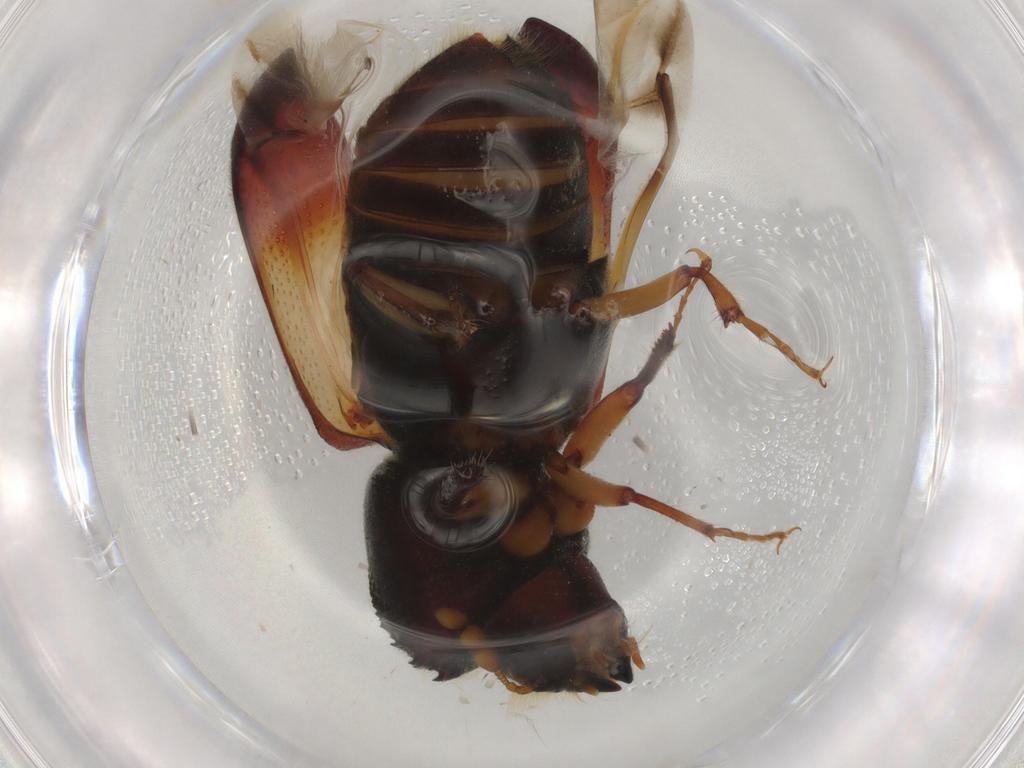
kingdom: Animalia
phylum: Arthropoda
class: Insecta
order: Coleoptera
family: Bostrichidae
